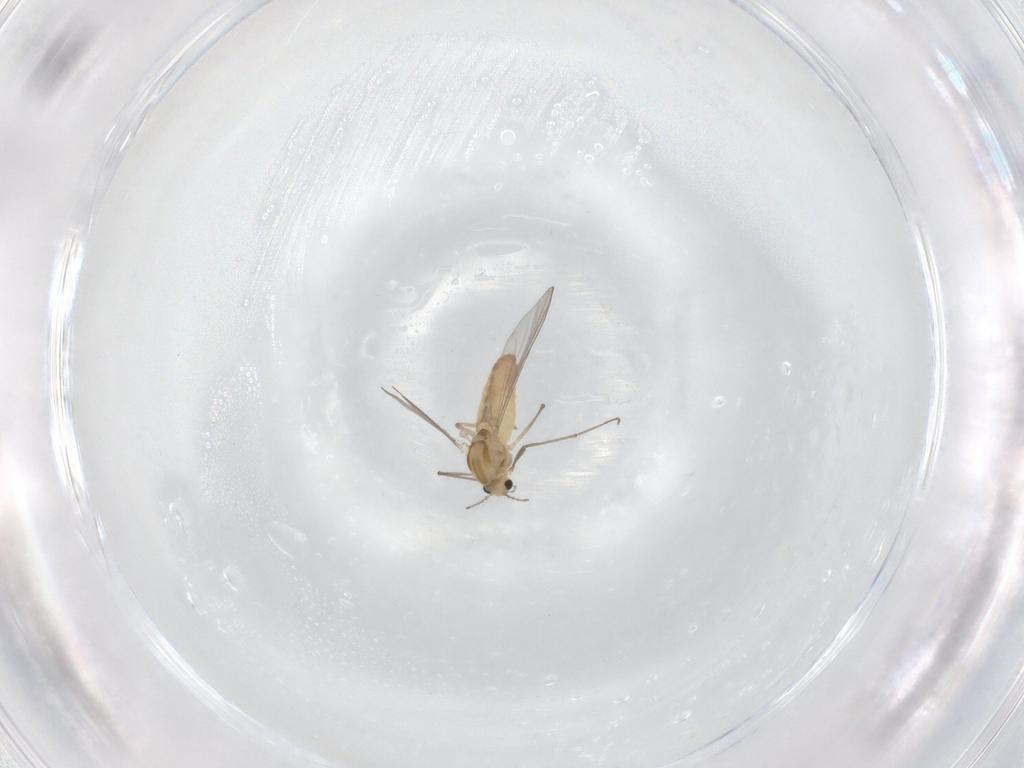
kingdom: Animalia
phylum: Arthropoda
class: Insecta
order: Diptera
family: Chironomidae
